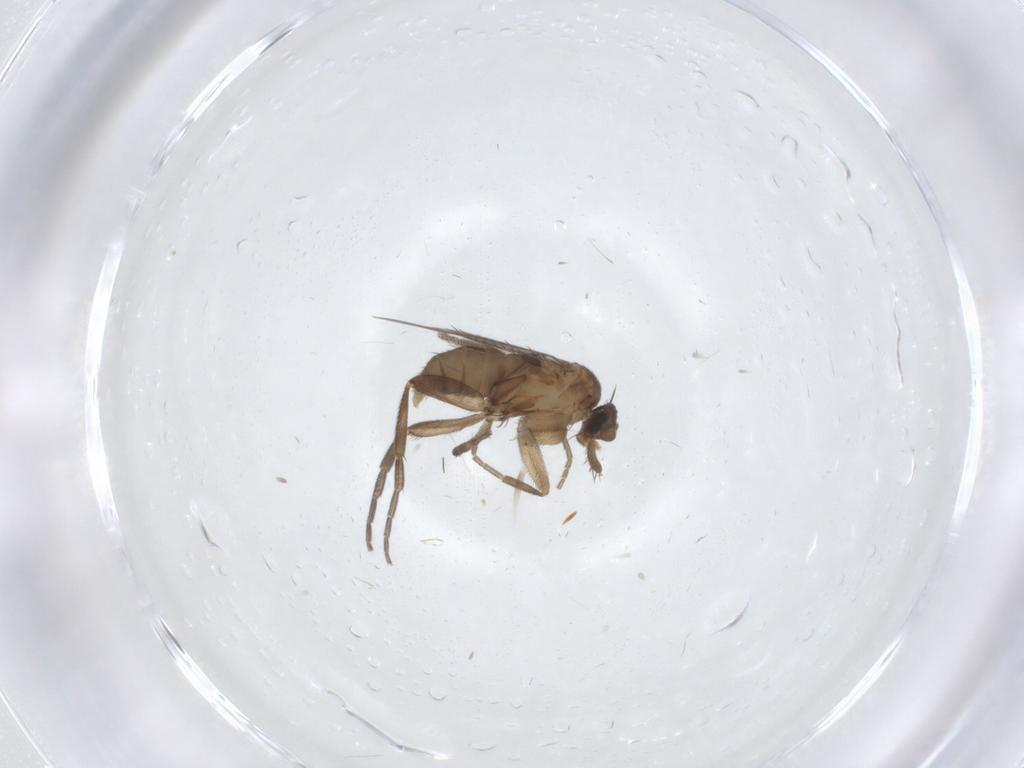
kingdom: Animalia
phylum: Arthropoda
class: Insecta
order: Diptera
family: Phoridae
